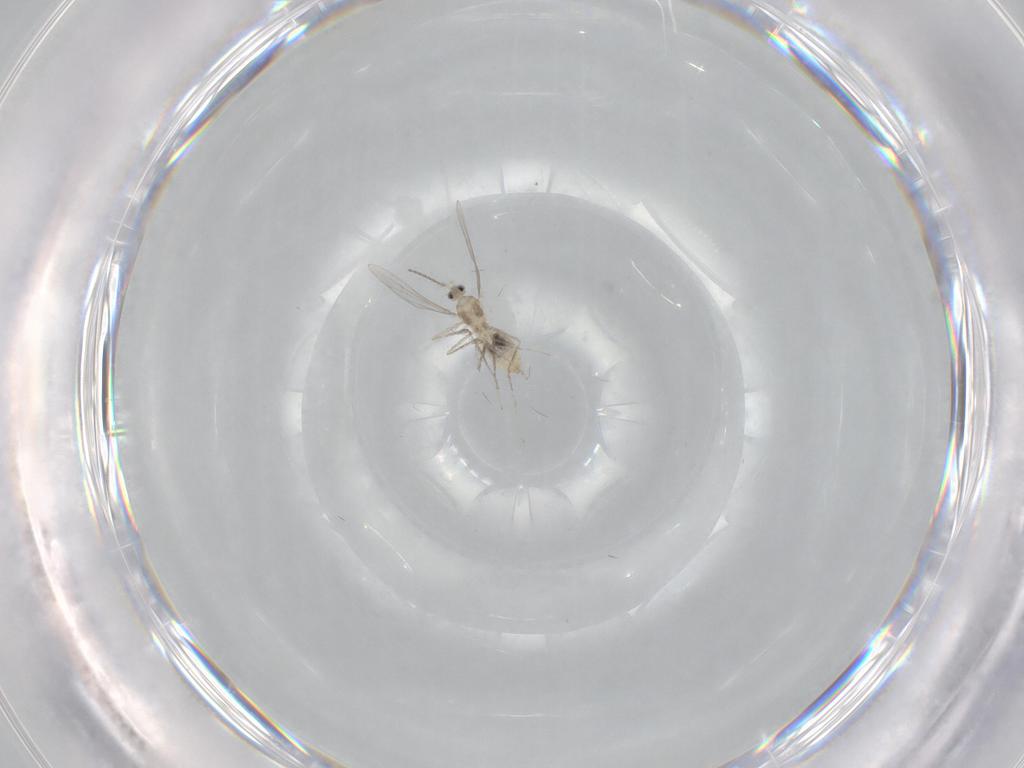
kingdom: Animalia
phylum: Arthropoda
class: Insecta
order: Diptera
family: Cecidomyiidae
